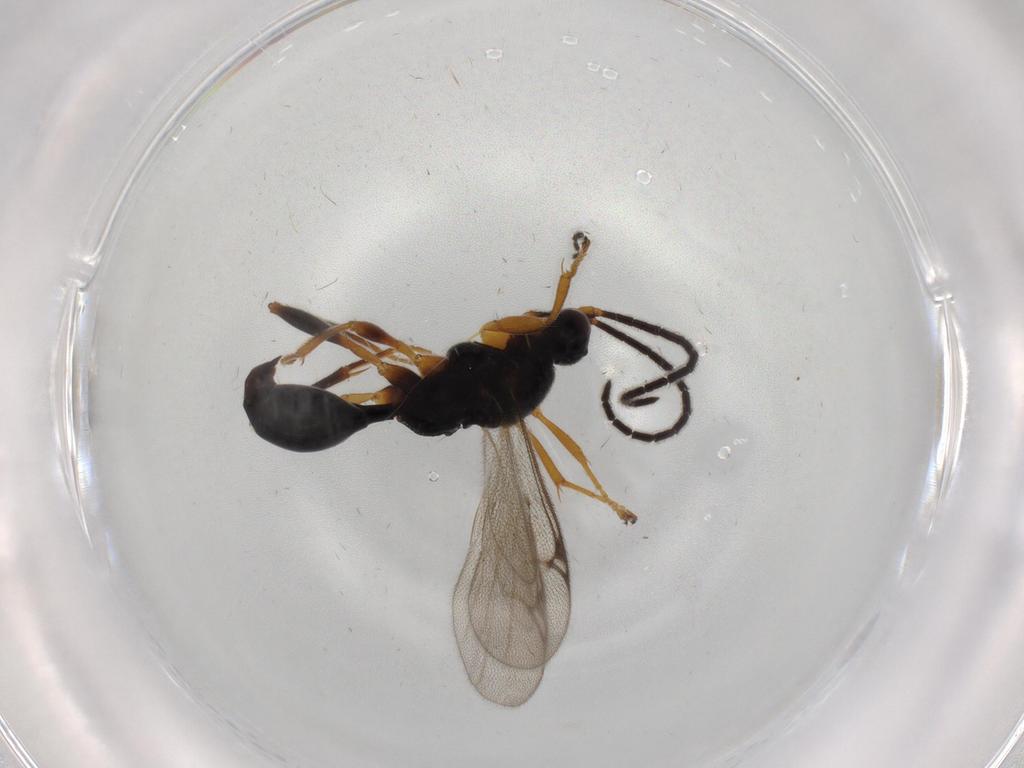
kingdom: Animalia
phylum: Arthropoda
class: Insecta
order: Hymenoptera
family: Proctotrupidae
